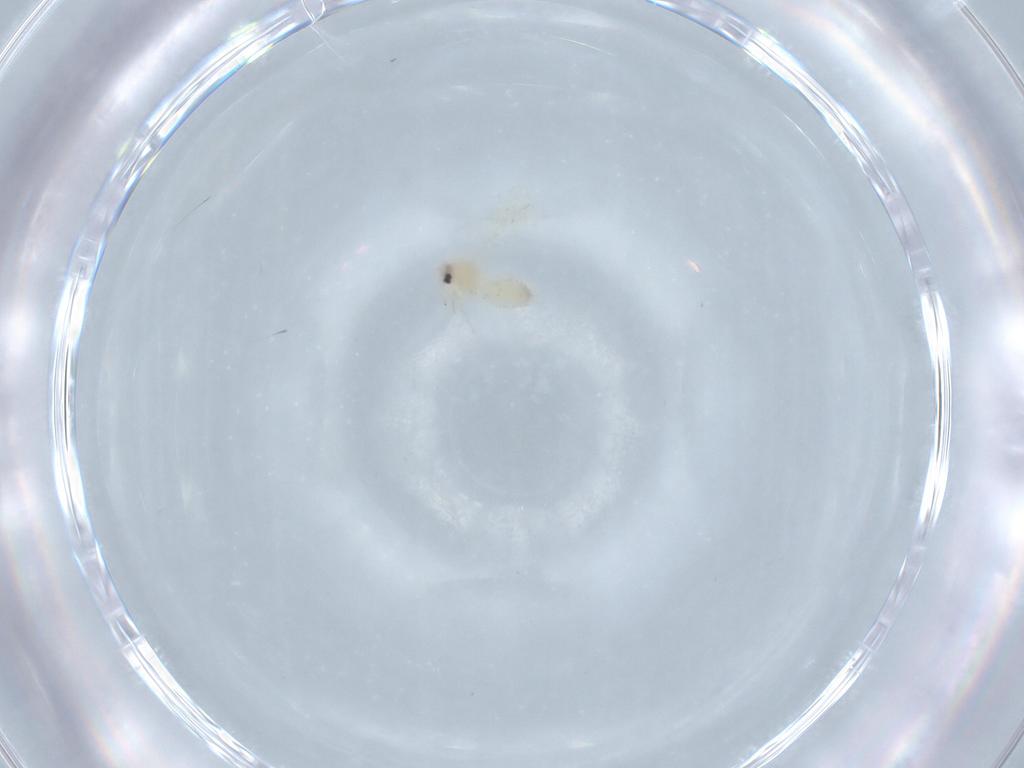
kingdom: Animalia
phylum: Arthropoda
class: Insecta
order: Hemiptera
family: Aleyrodidae
